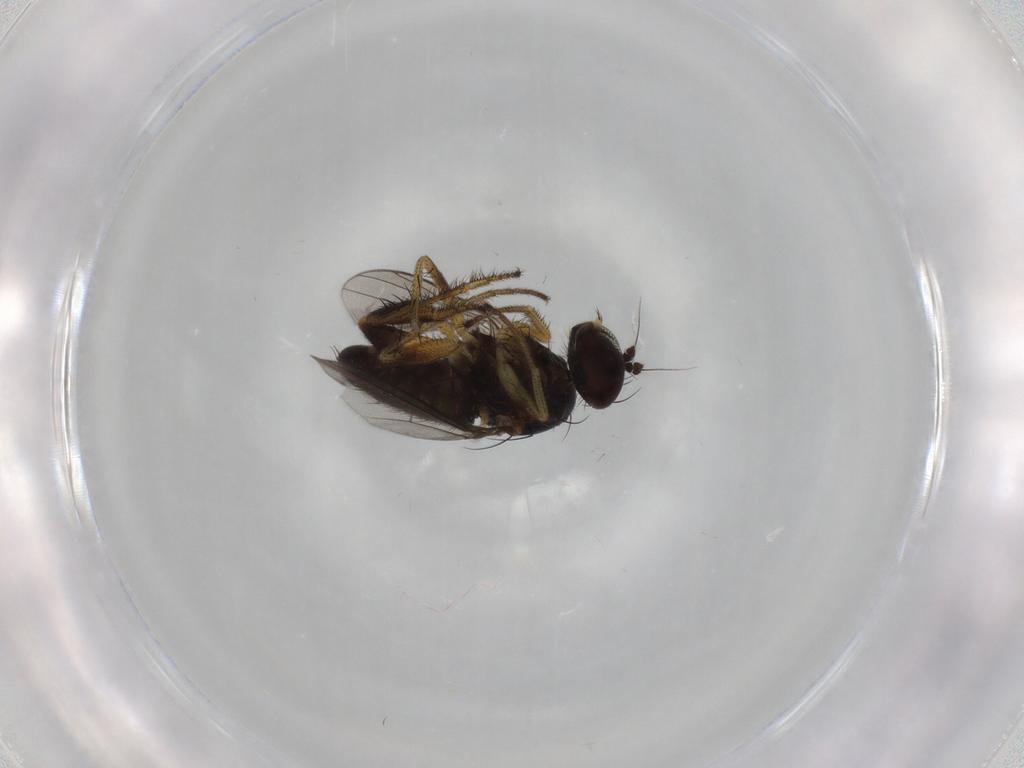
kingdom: Animalia
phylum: Arthropoda
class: Insecta
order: Diptera
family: Dolichopodidae
